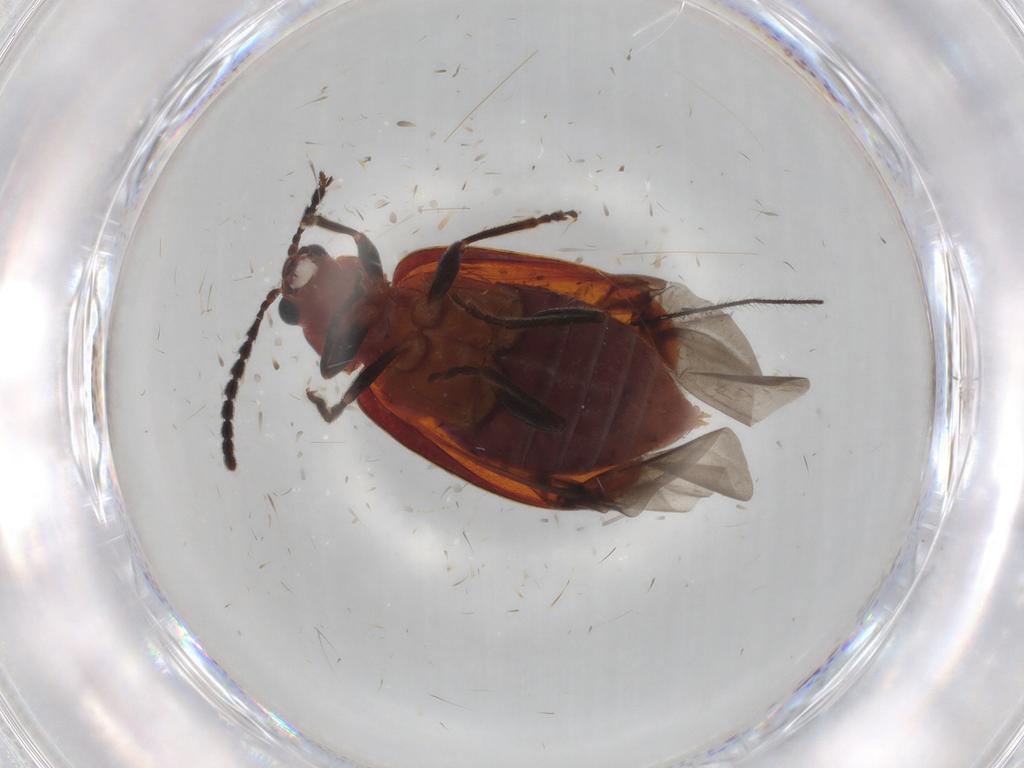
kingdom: Animalia
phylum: Arthropoda
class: Insecta
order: Coleoptera
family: Chrysomelidae
